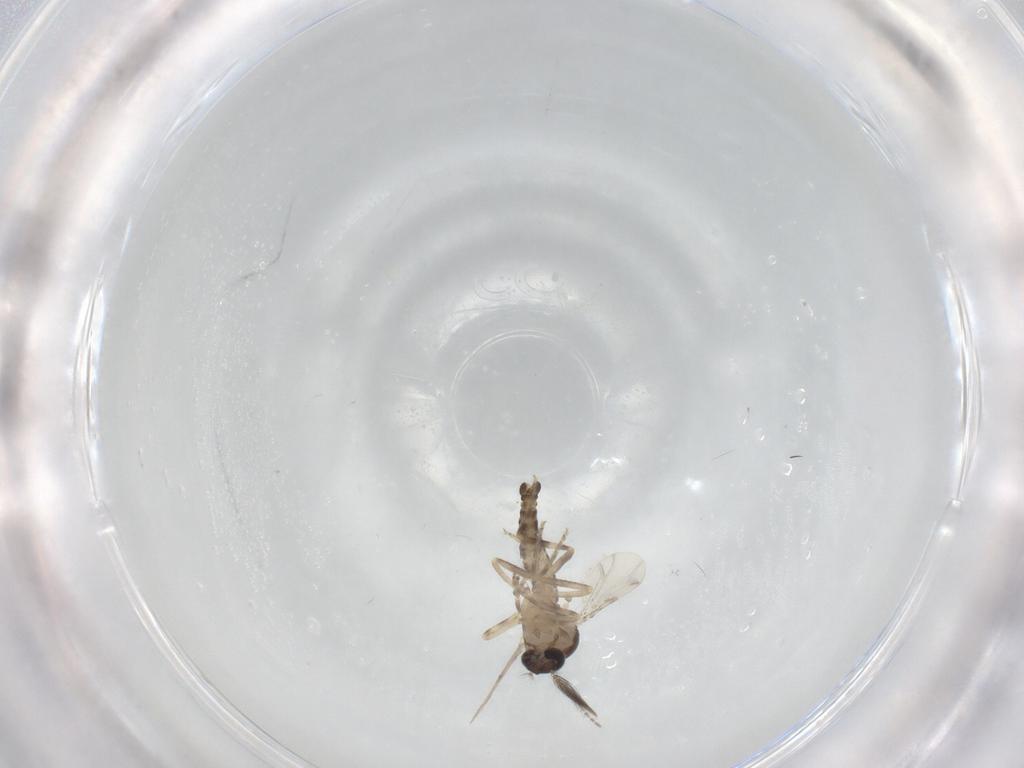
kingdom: Animalia
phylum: Arthropoda
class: Insecta
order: Diptera
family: Ceratopogonidae
